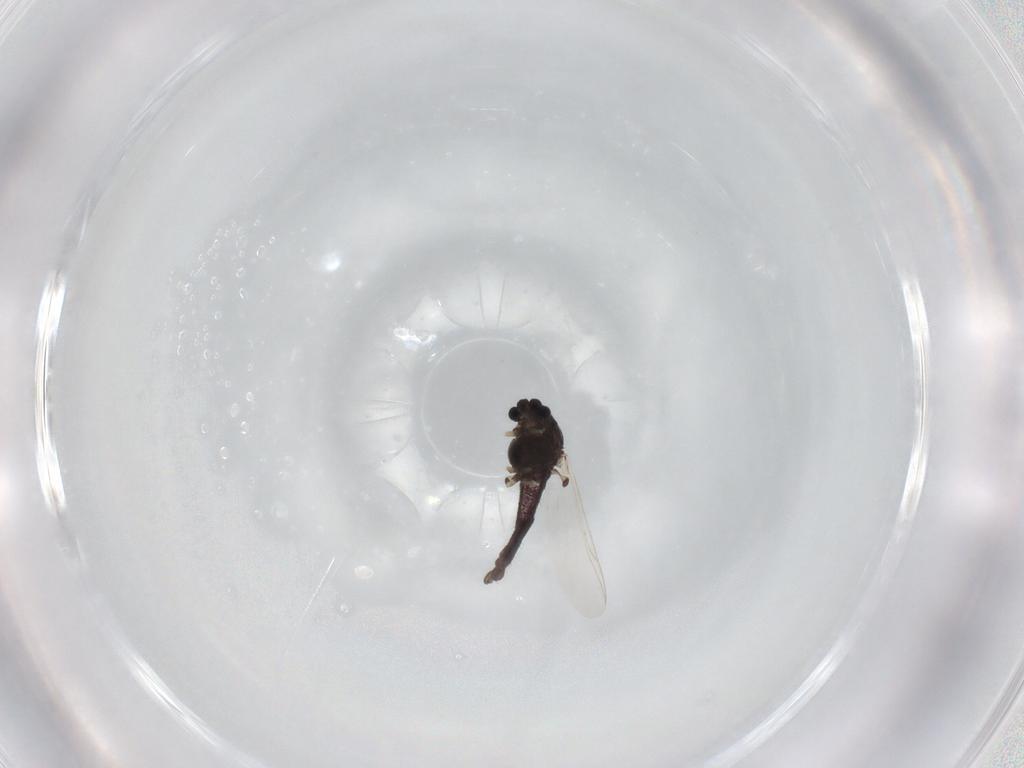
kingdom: Animalia
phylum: Arthropoda
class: Insecta
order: Diptera
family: Chironomidae
